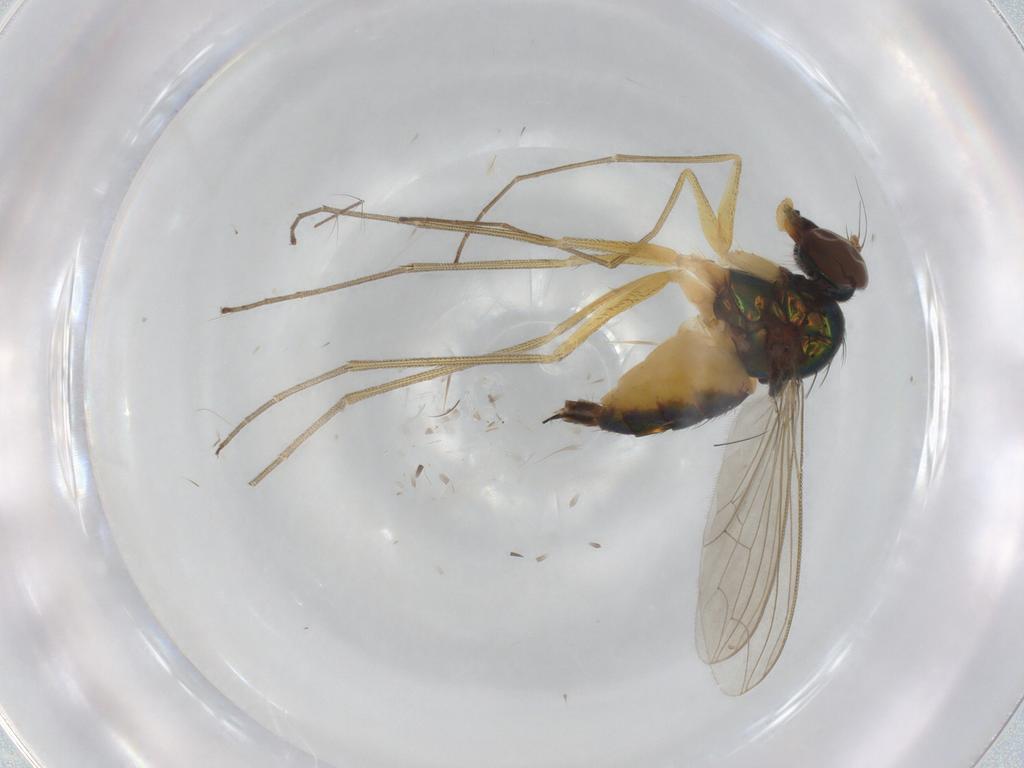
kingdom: Animalia
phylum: Arthropoda
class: Insecta
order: Diptera
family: Dolichopodidae
